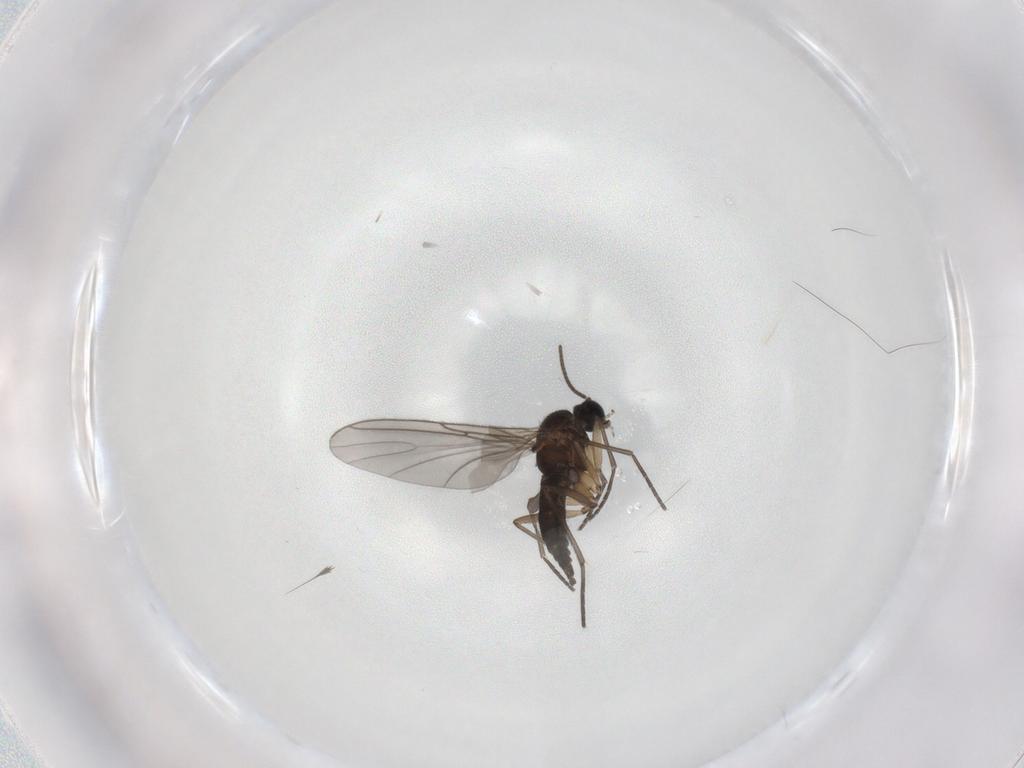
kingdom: Animalia
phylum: Arthropoda
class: Insecta
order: Diptera
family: Sciaridae
